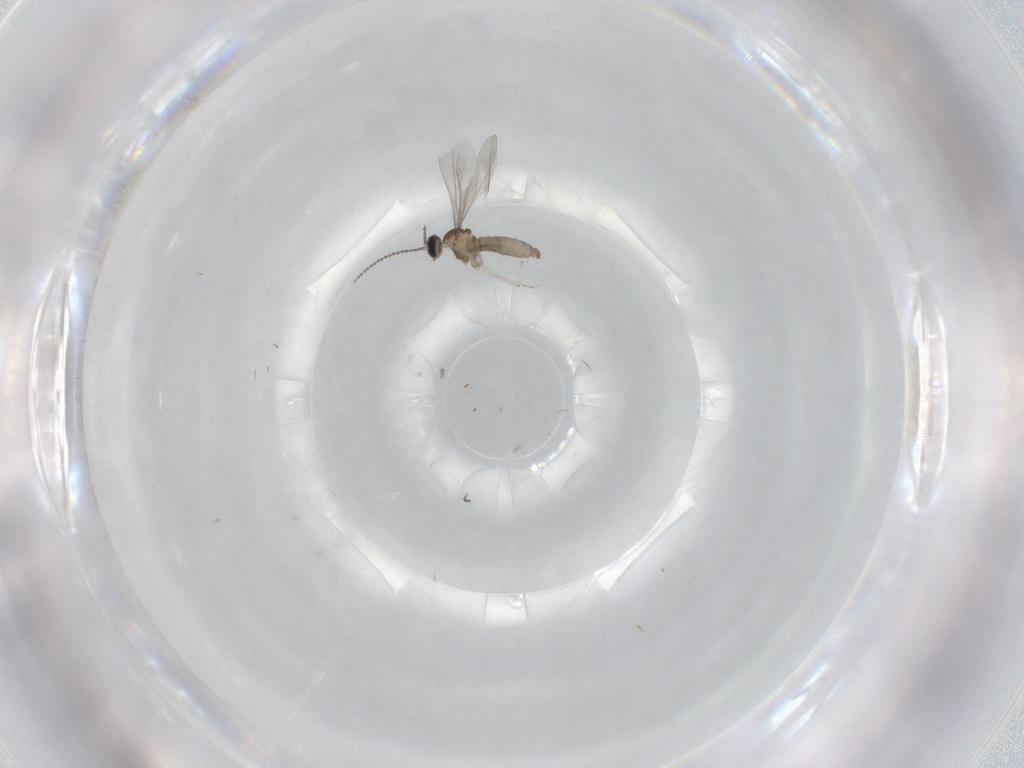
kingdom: Animalia
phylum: Arthropoda
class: Insecta
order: Diptera
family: Cecidomyiidae
